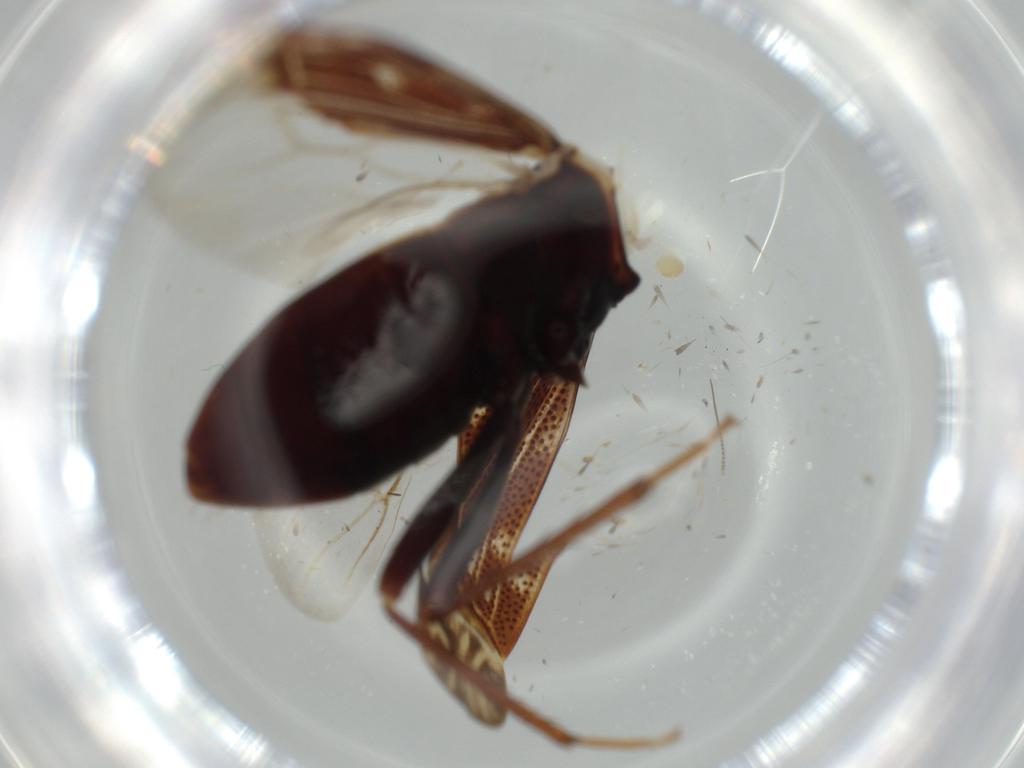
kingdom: Animalia
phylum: Arthropoda
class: Insecta
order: Hemiptera
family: Rhyparochromidae
